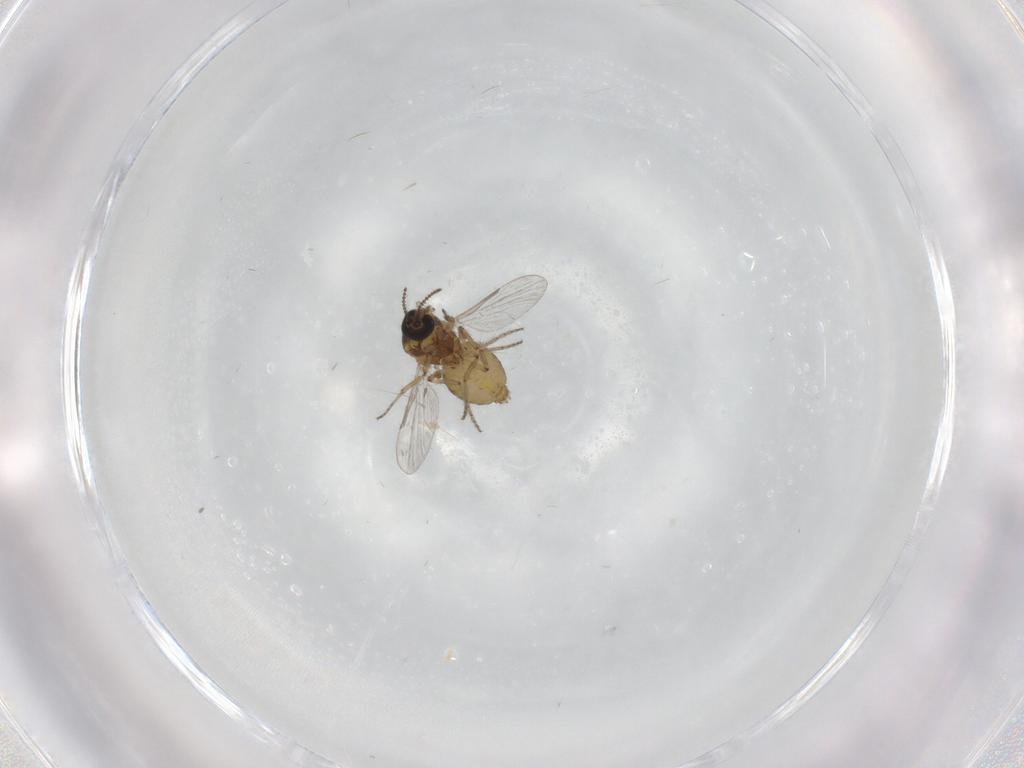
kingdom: Animalia
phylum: Arthropoda
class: Insecta
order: Diptera
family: Ceratopogonidae
